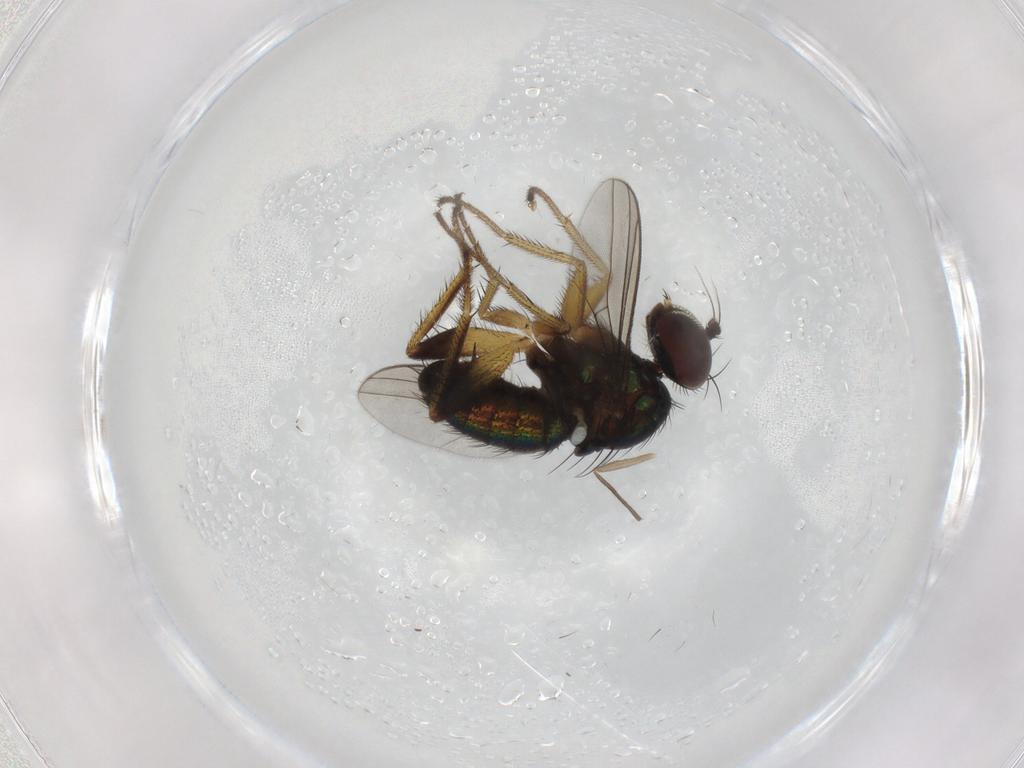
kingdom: Animalia
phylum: Arthropoda
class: Insecta
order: Diptera
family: Dolichopodidae
